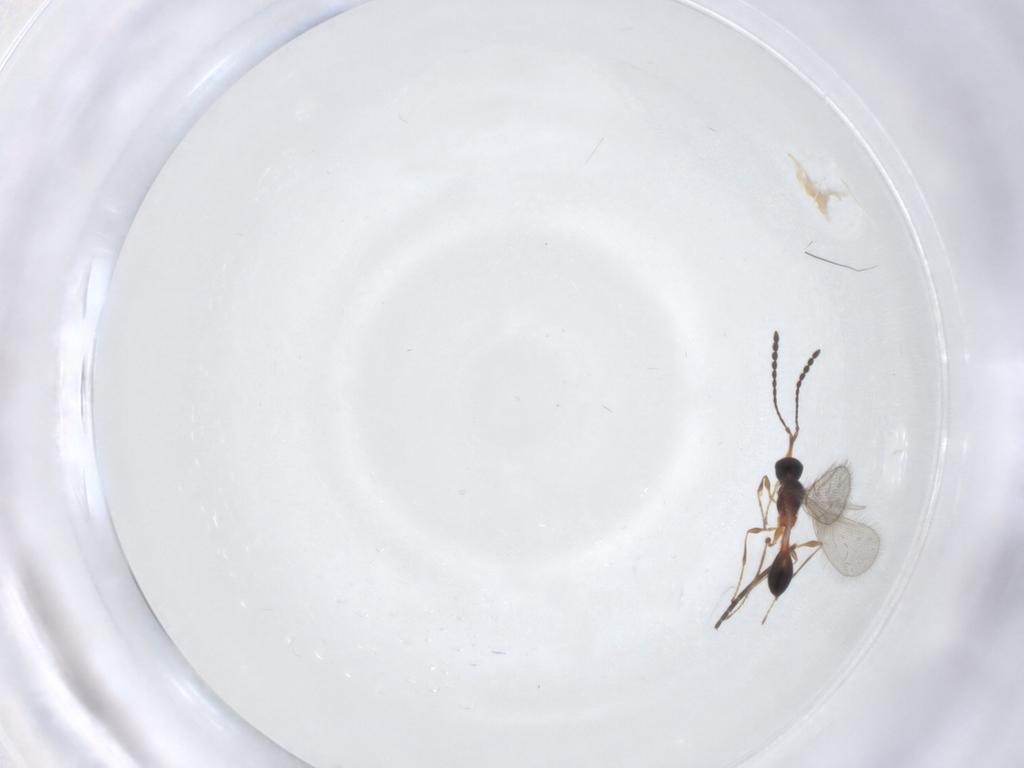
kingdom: Animalia
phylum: Arthropoda
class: Insecta
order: Hymenoptera
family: Diapriidae
